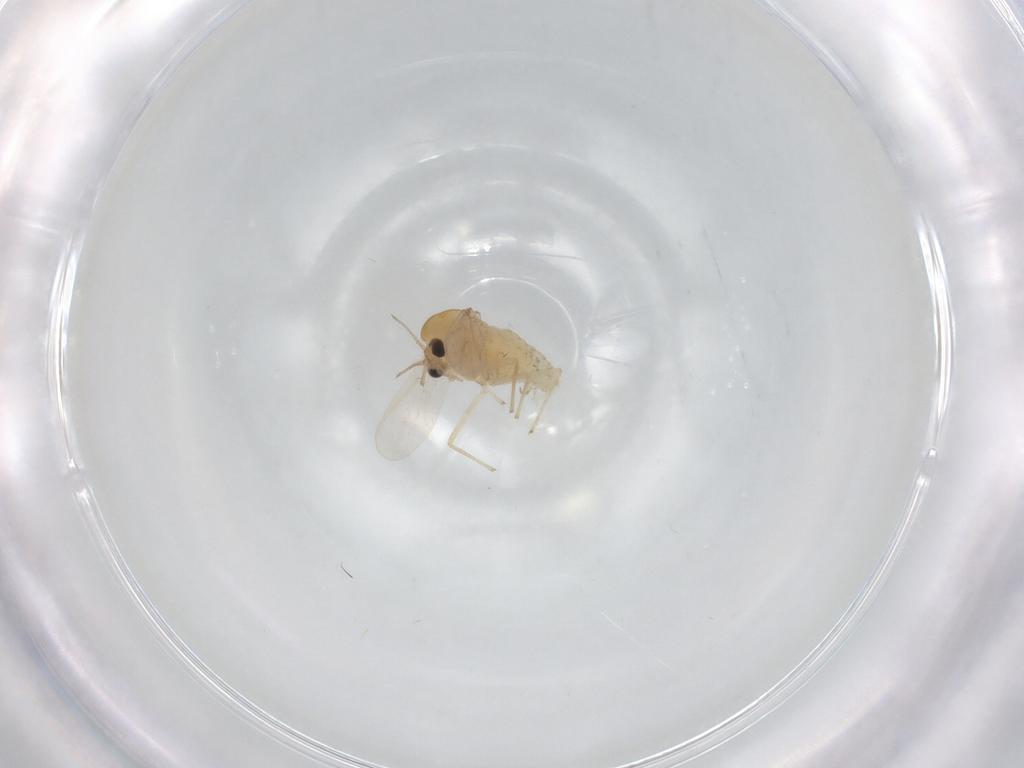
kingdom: Animalia
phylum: Arthropoda
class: Insecta
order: Diptera
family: Chironomidae
